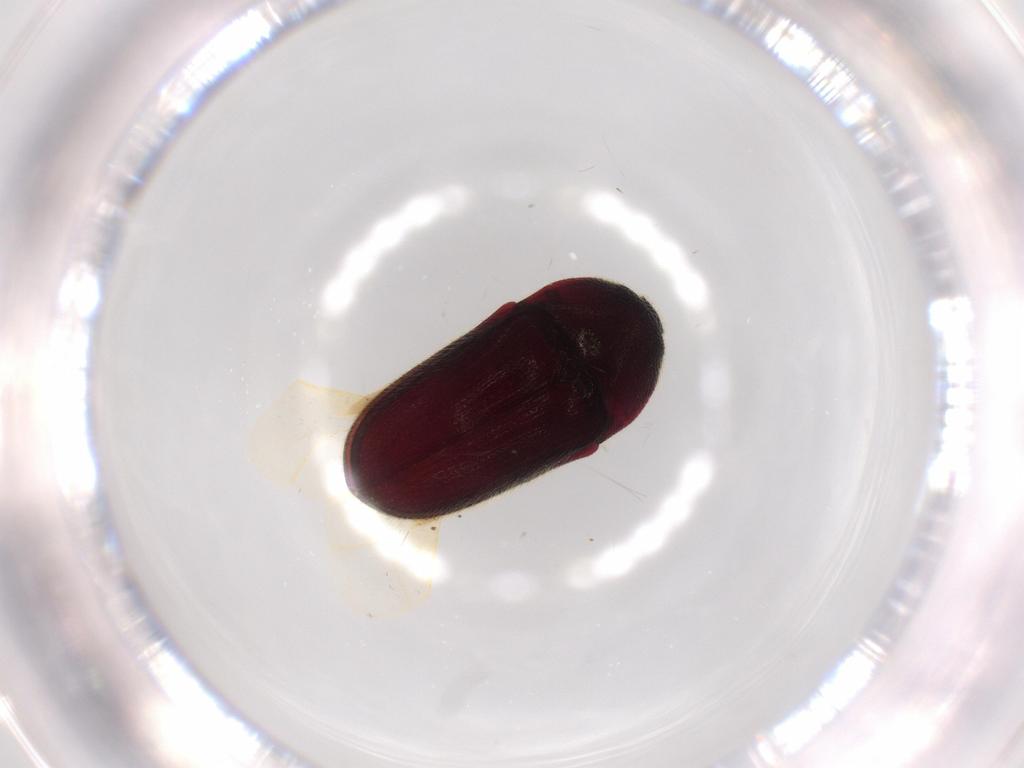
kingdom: Animalia
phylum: Arthropoda
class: Insecta
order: Coleoptera
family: Throscidae
